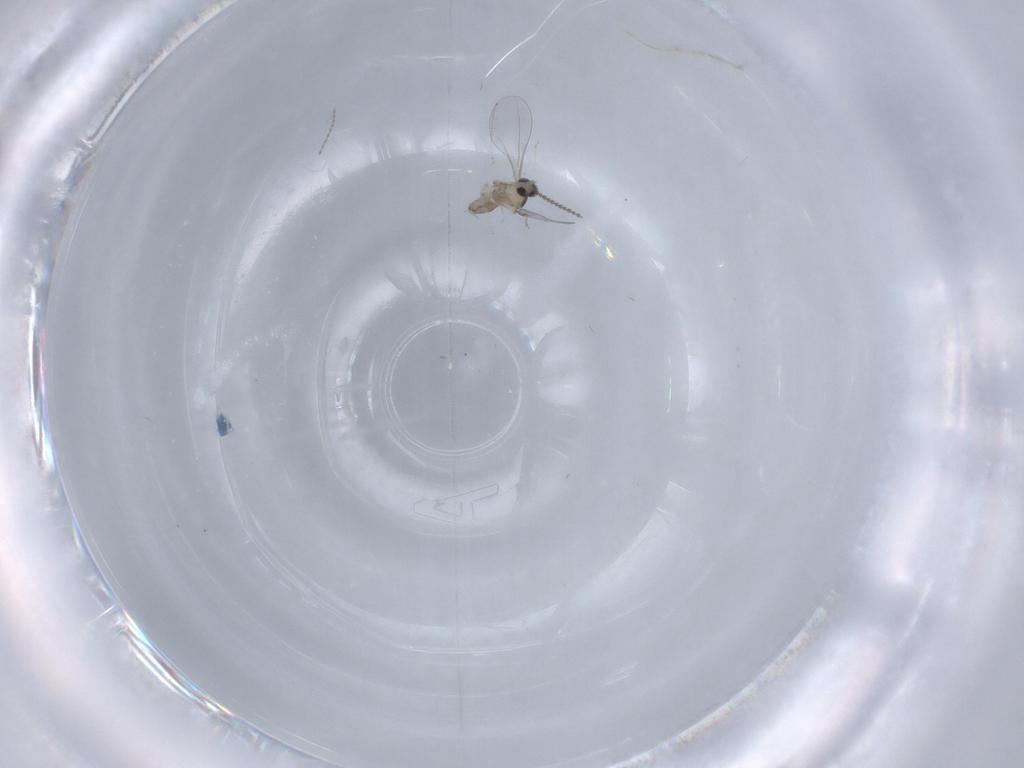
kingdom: Animalia
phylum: Arthropoda
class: Insecta
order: Diptera
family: Cecidomyiidae
